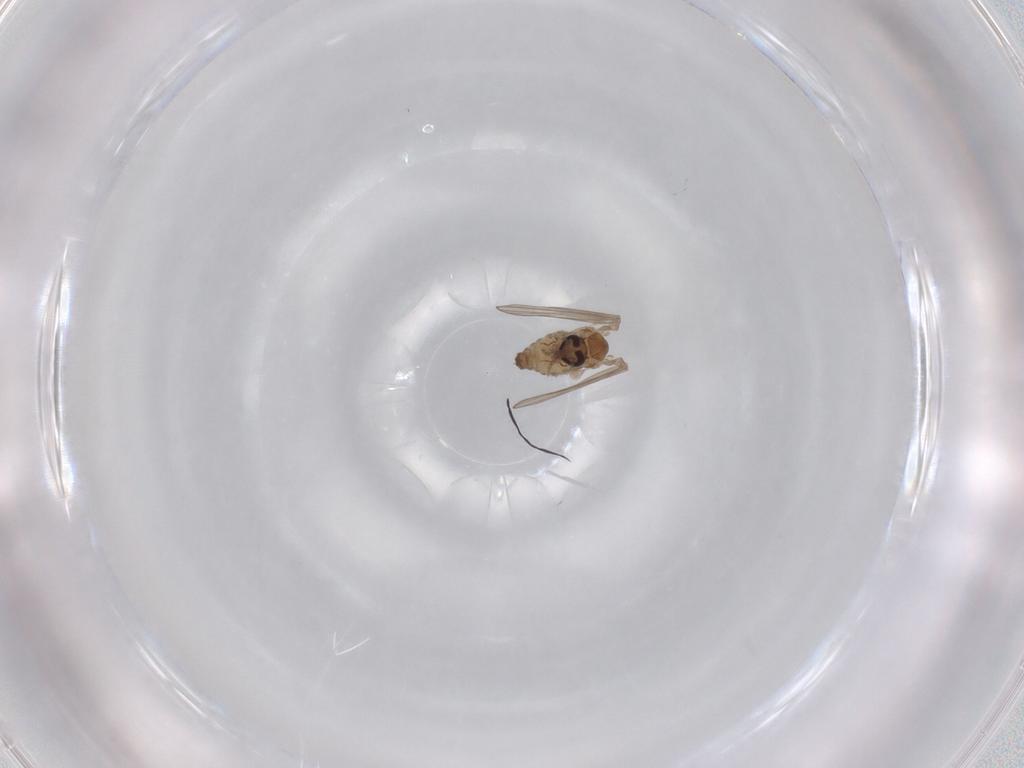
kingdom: Animalia
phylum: Arthropoda
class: Insecta
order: Diptera
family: Psychodidae
